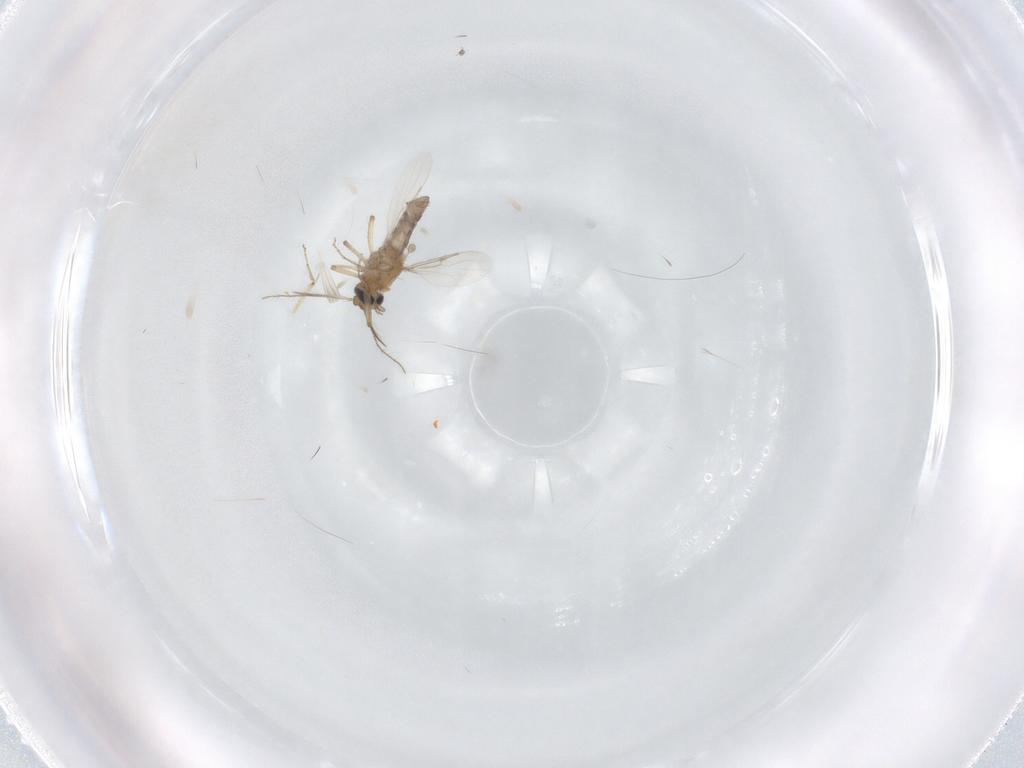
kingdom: Animalia
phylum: Arthropoda
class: Insecta
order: Diptera
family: Ceratopogonidae
